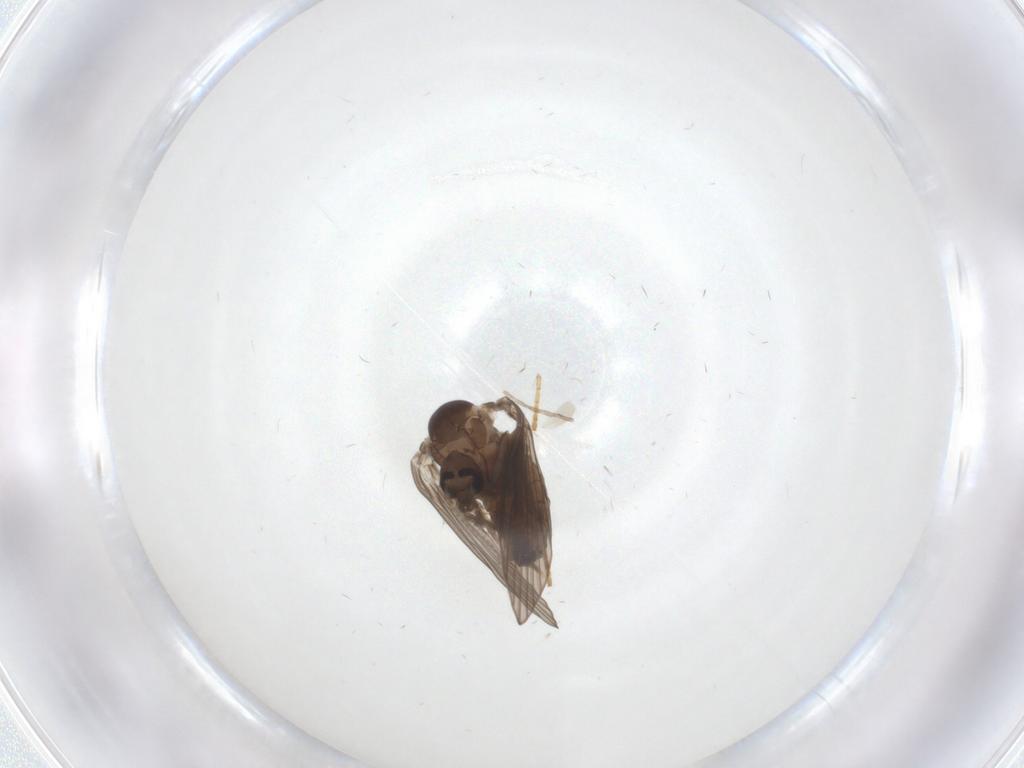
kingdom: Animalia
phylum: Arthropoda
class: Insecta
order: Diptera
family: Psychodidae
